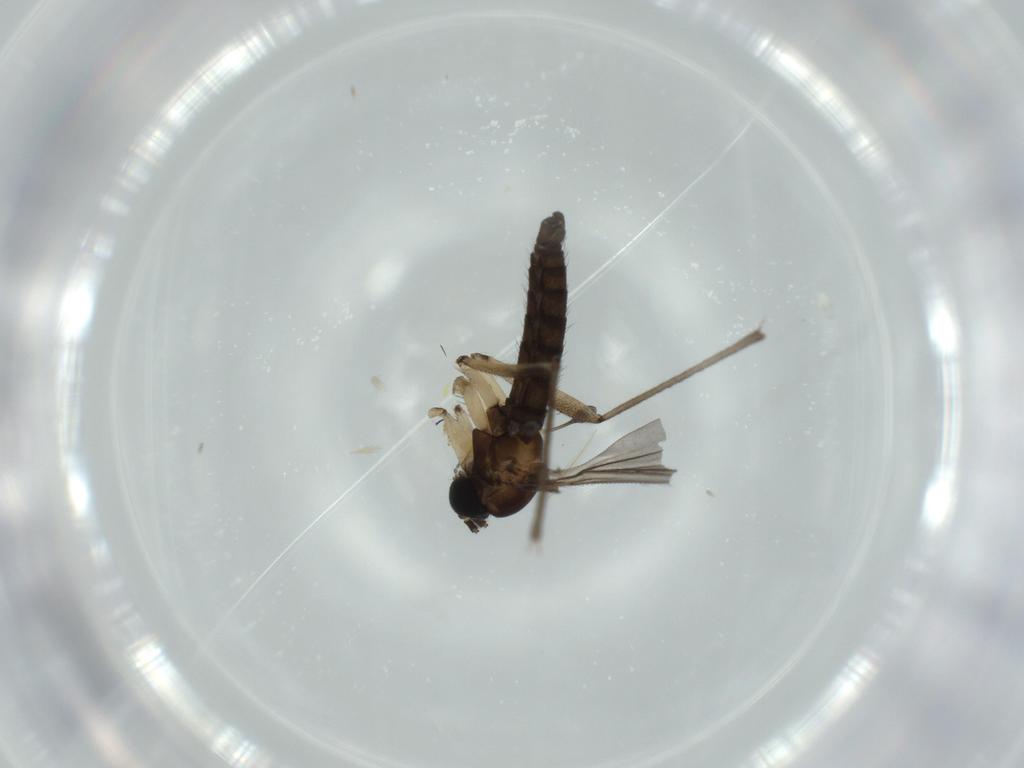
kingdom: Animalia
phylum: Arthropoda
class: Insecta
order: Diptera
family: Sciaridae
